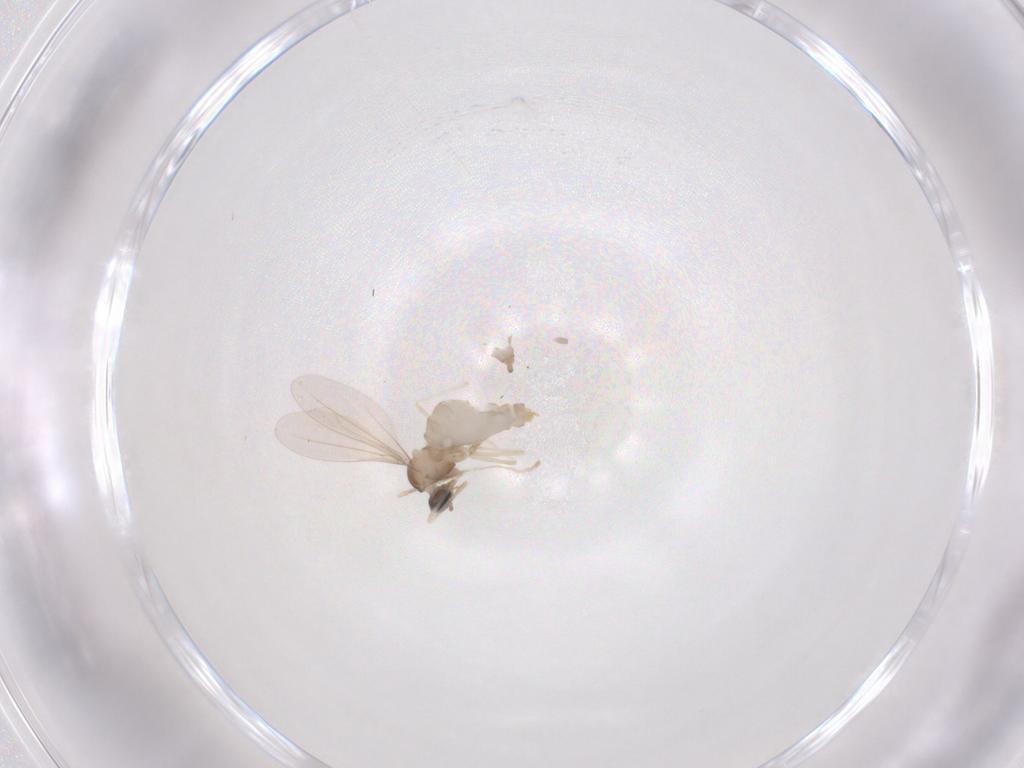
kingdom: Animalia
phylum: Arthropoda
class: Insecta
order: Diptera
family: Cecidomyiidae
